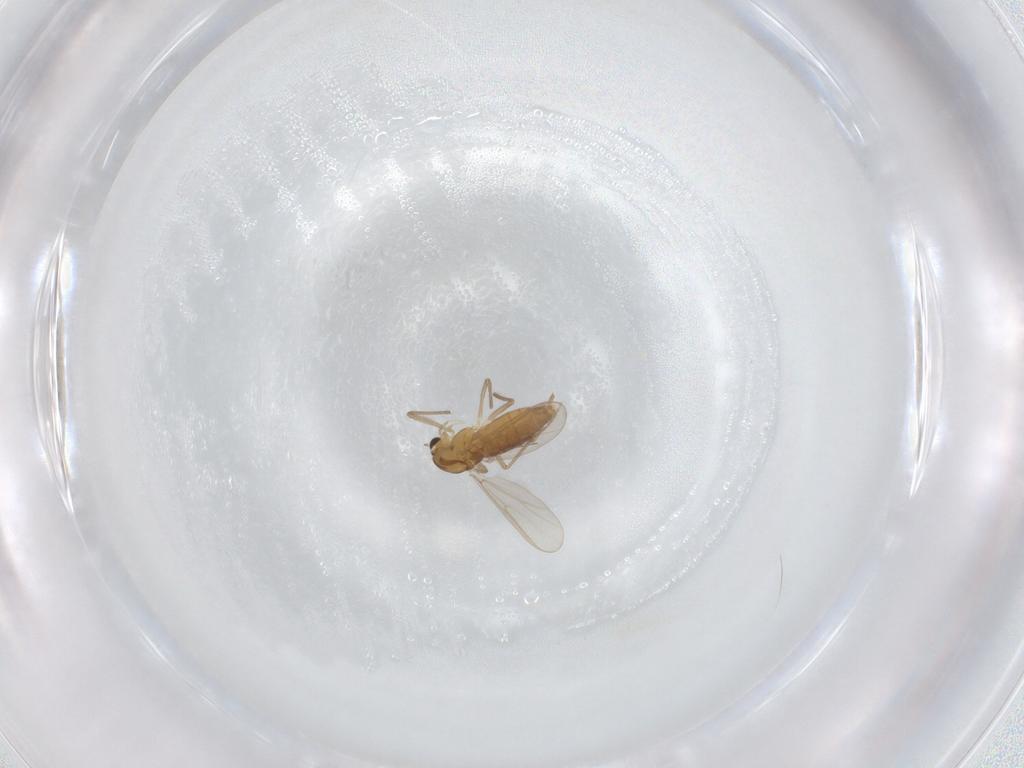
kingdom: Animalia
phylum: Arthropoda
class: Insecta
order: Diptera
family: Chironomidae
